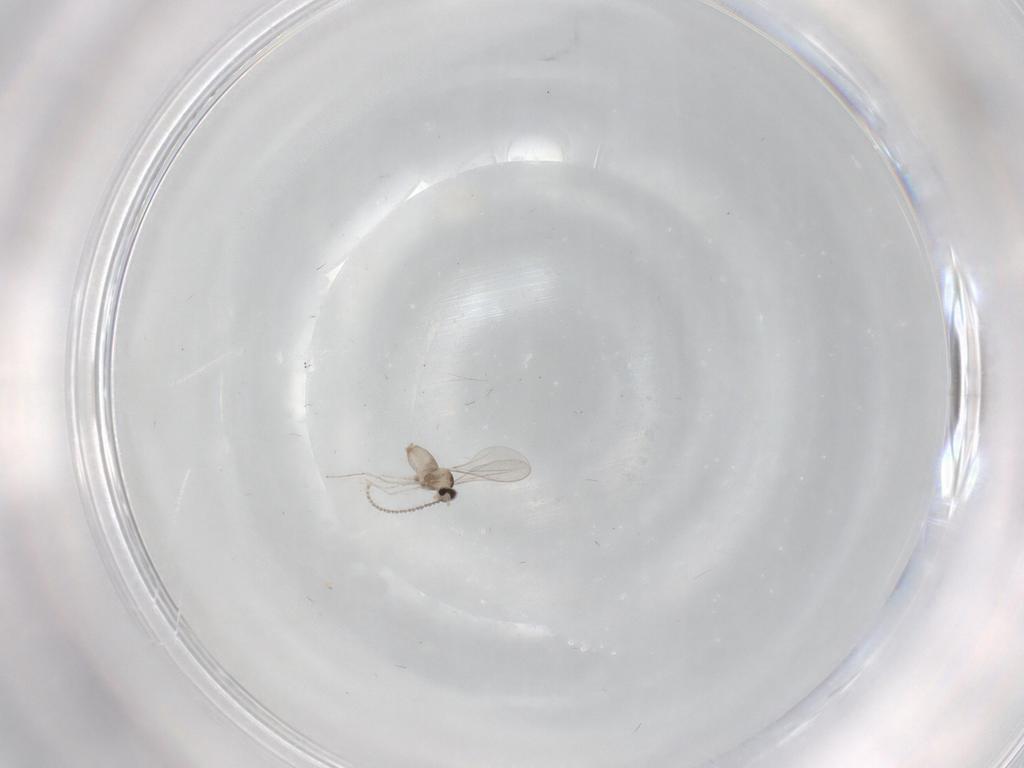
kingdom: Animalia
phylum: Arthropoda
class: Insecta
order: Diptera
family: Cecidomyiidae
